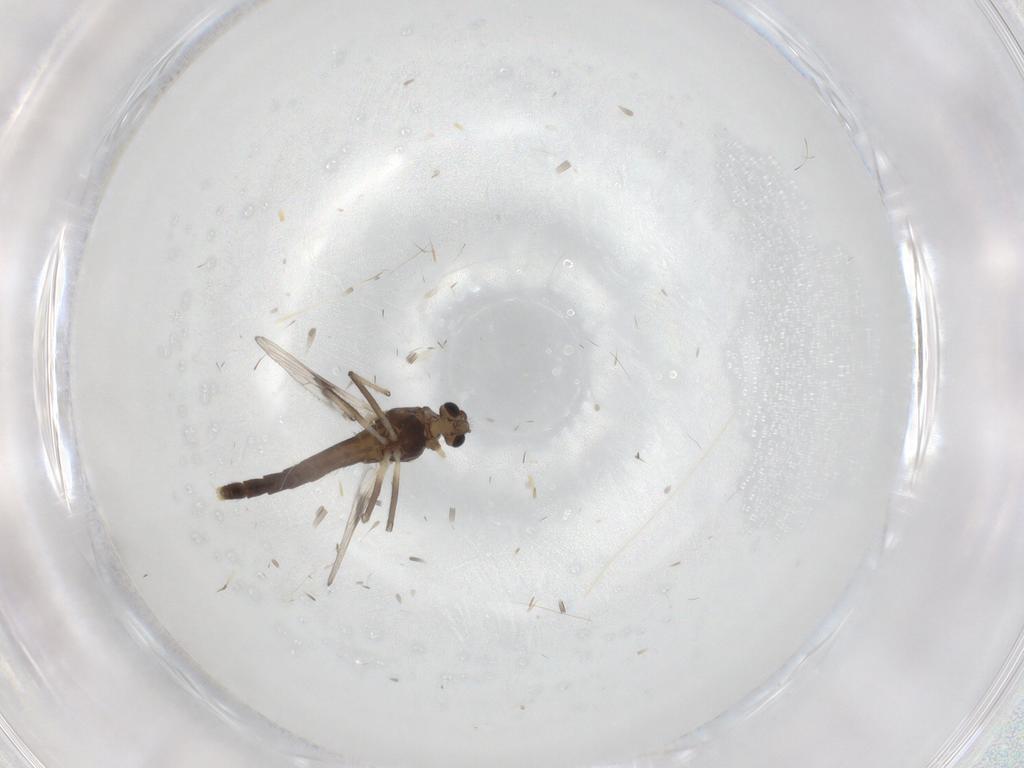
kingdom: Animalia
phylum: Arthropoda
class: Insecta
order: Diptera
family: Chironomidae
